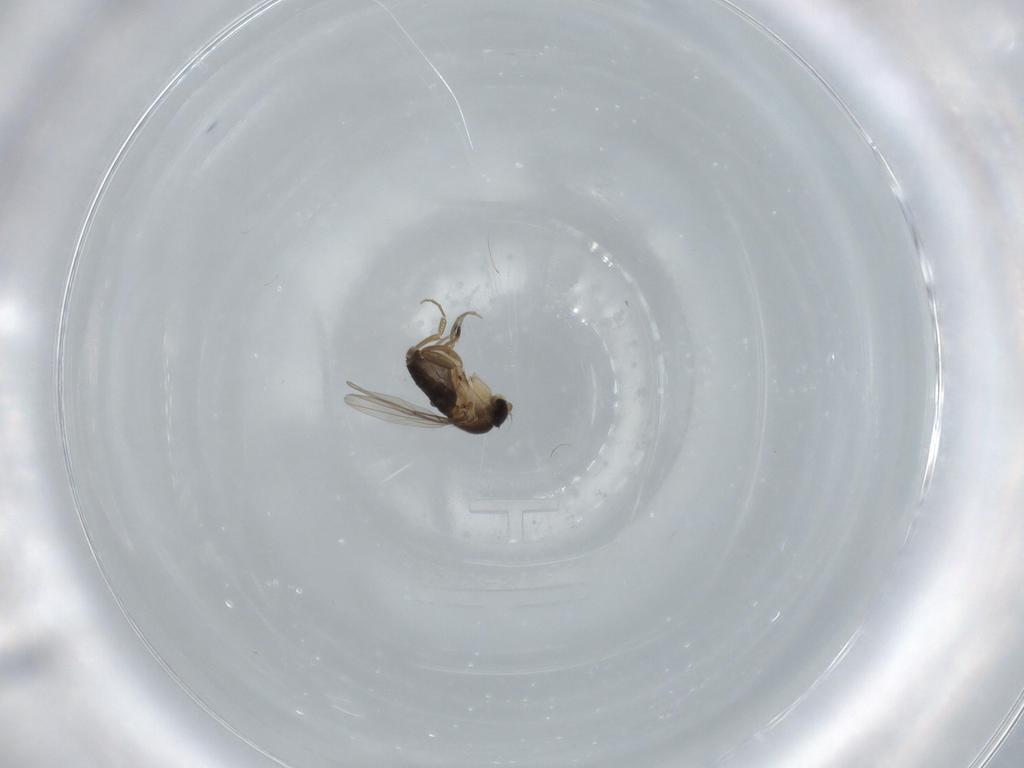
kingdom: Animalia
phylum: Arthropoda
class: Insecta
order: Diptera
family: Phoridae
